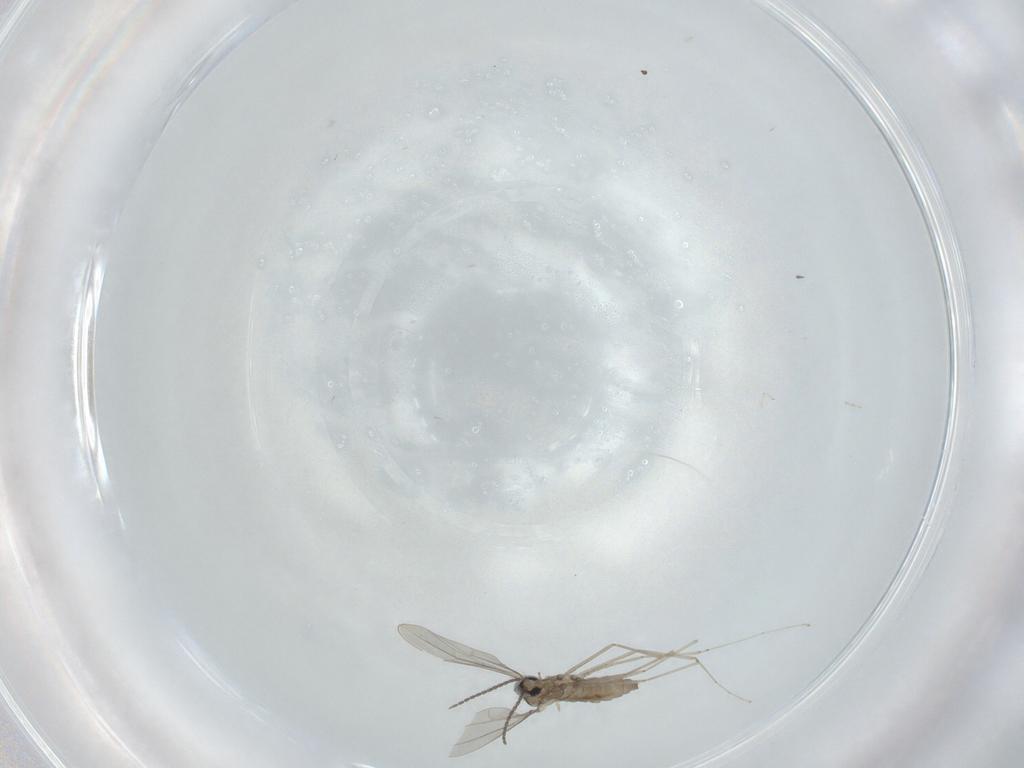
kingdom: Animalia
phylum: Arthropoda
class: Insecta
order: Diptera
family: Cecidomyiidae
